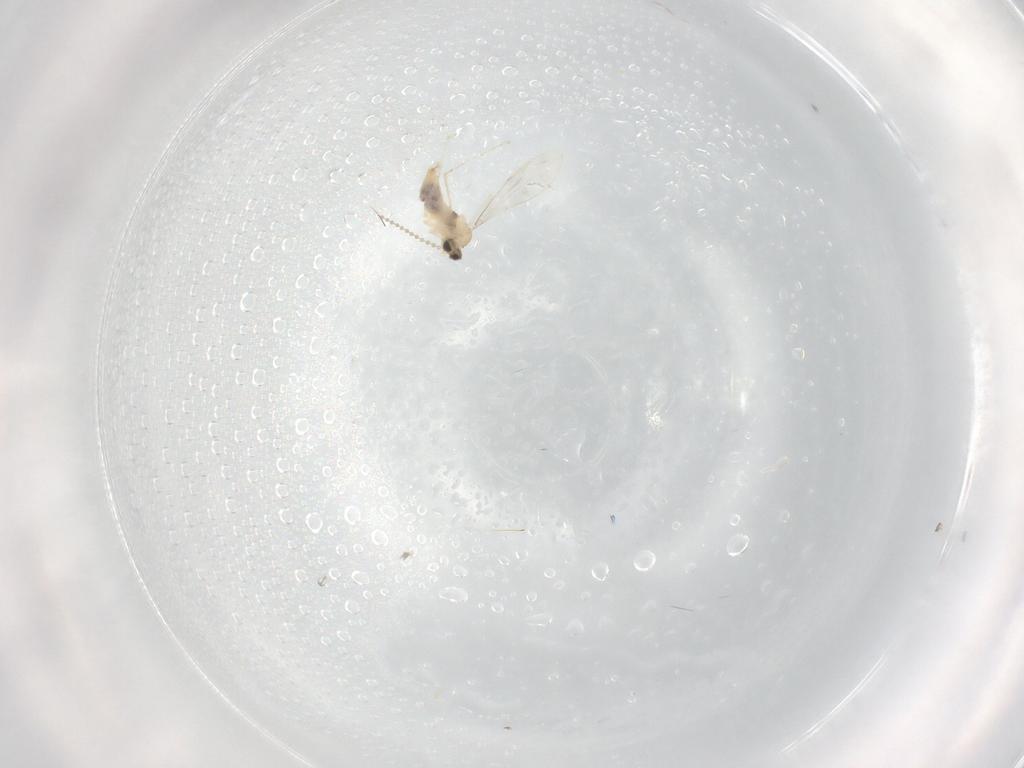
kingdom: Animalia
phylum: Arthropoda
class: Insecta
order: Diptera
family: Cecidomyiidae
